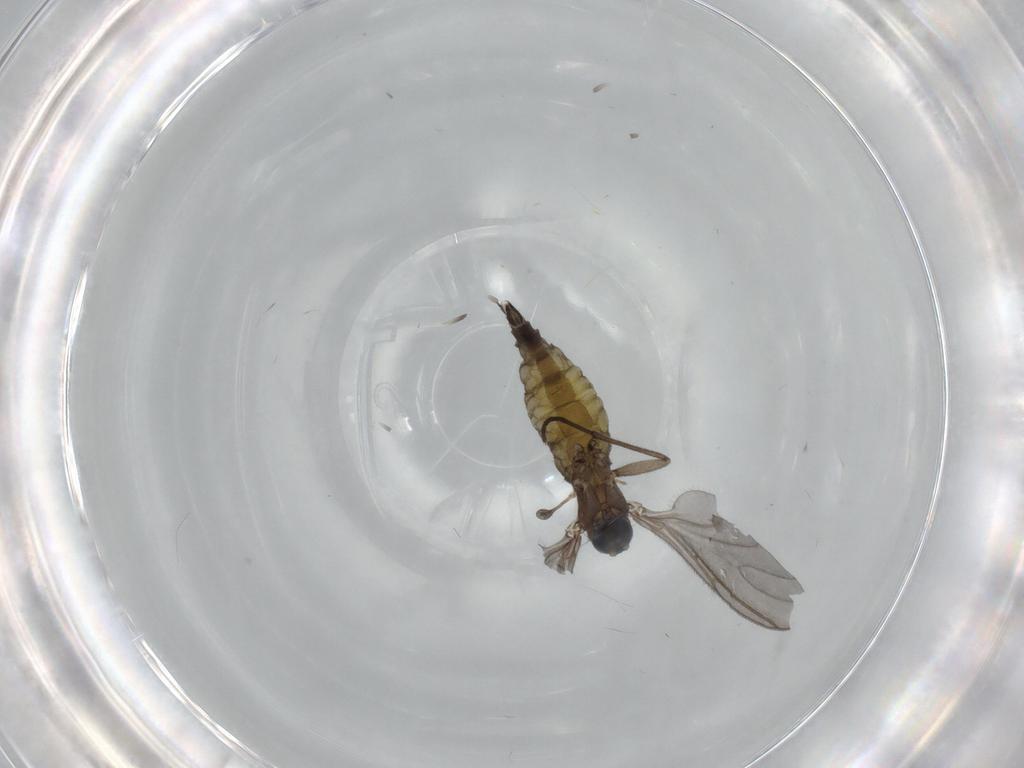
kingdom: Animalia
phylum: Arthropoda
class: Insecta
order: Diptera
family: Sciaridae
